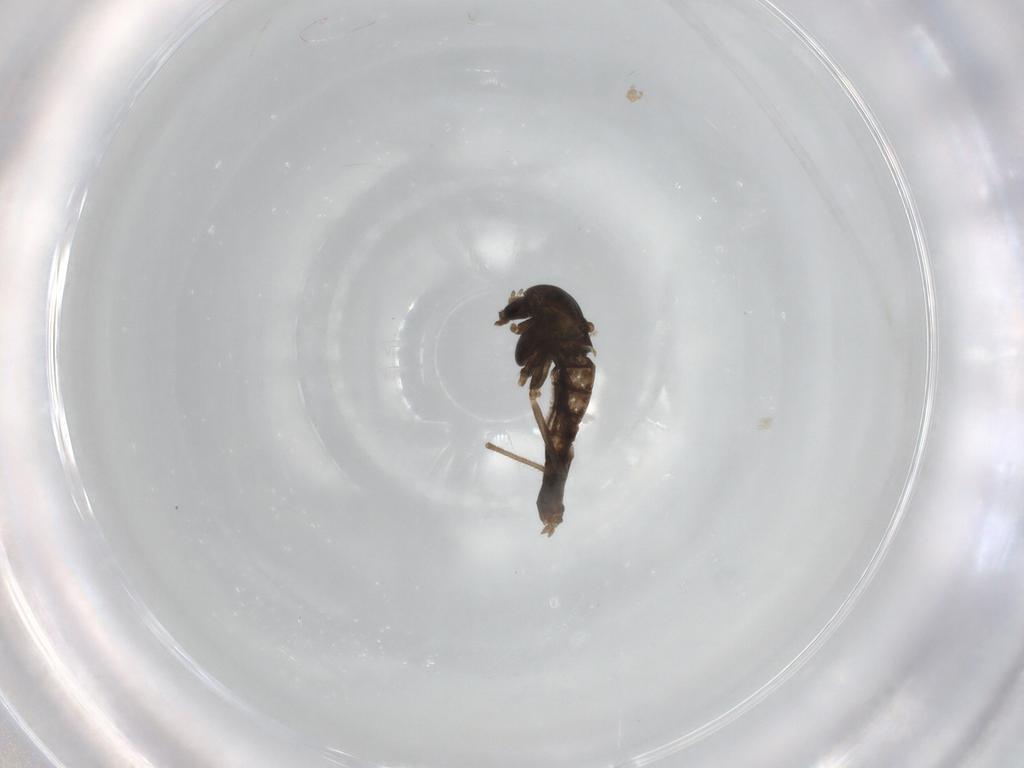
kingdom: Animalia
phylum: Arthropoda
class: Insecta
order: Diptera
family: Chironomidae
